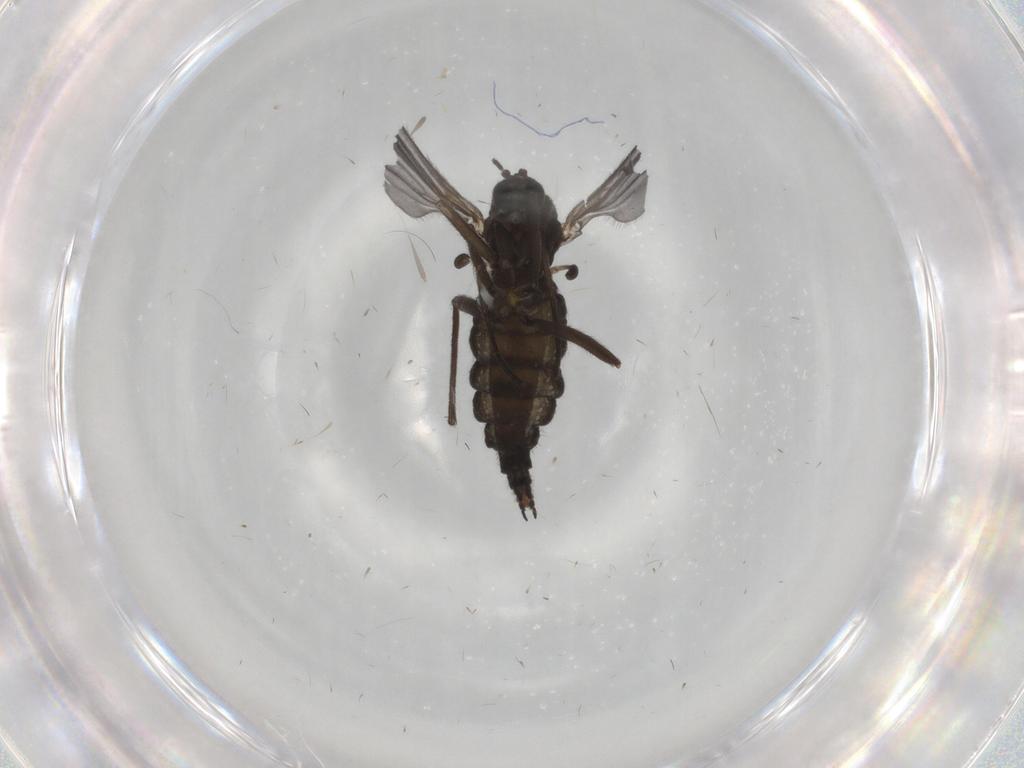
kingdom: Animalia
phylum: Arthropoda
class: Insecta
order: Diptera
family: Sciaridae
